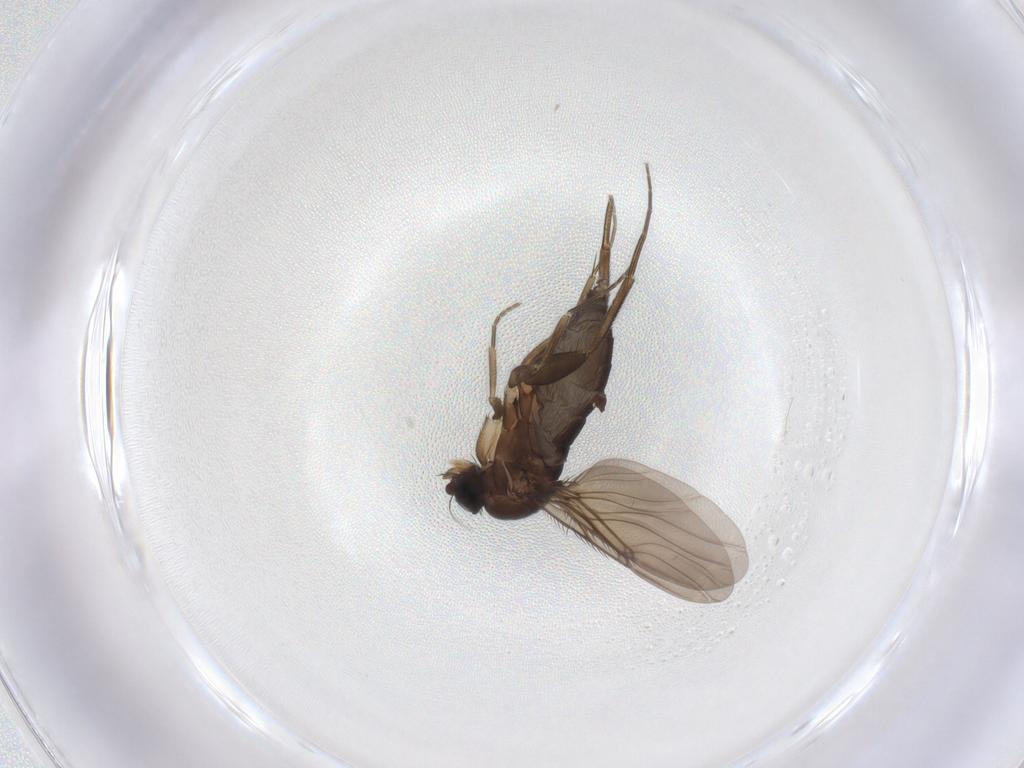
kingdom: Animalia
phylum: Arthropoda
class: Insecta
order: Diptera
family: Phoridae
